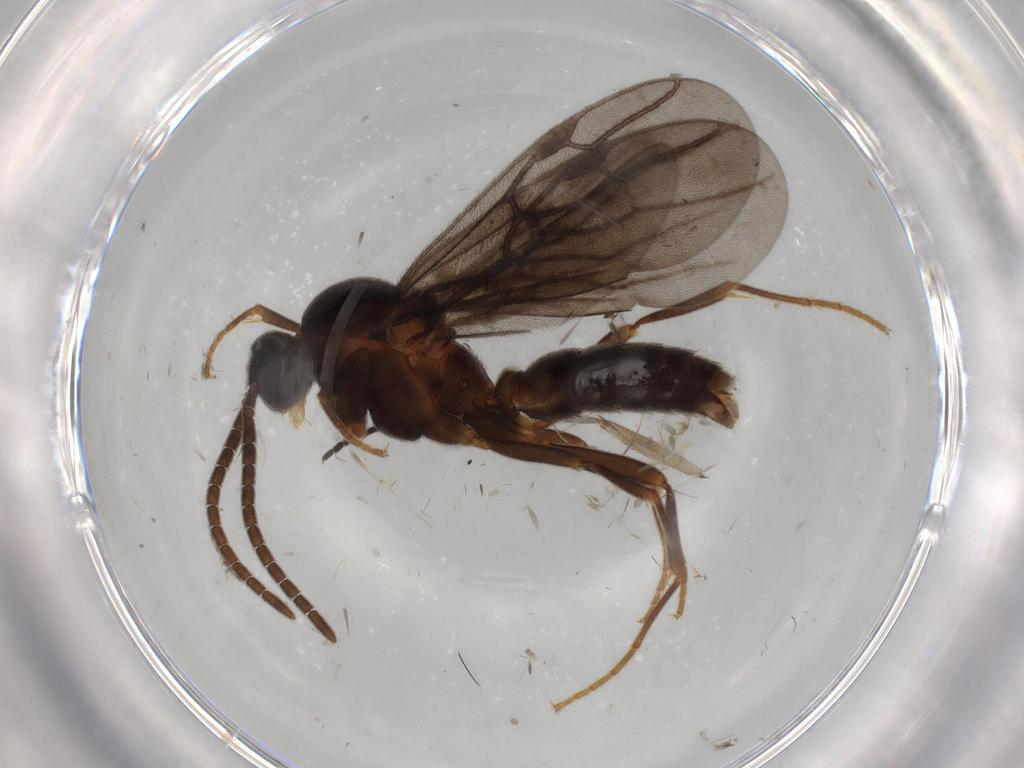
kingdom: Animalia
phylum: Arthropoda
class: Insecta
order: Hymenoptera
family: Formicidae
